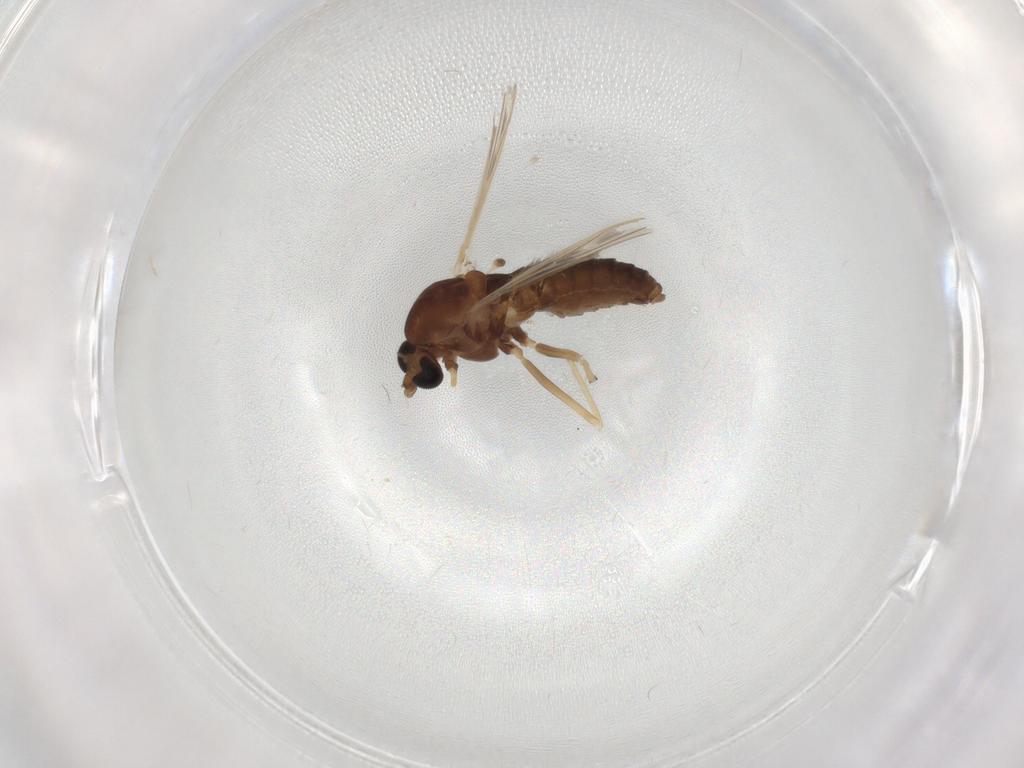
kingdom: Animalia
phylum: Arthropoda
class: Insecta
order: Diptera
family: Chironomidae
